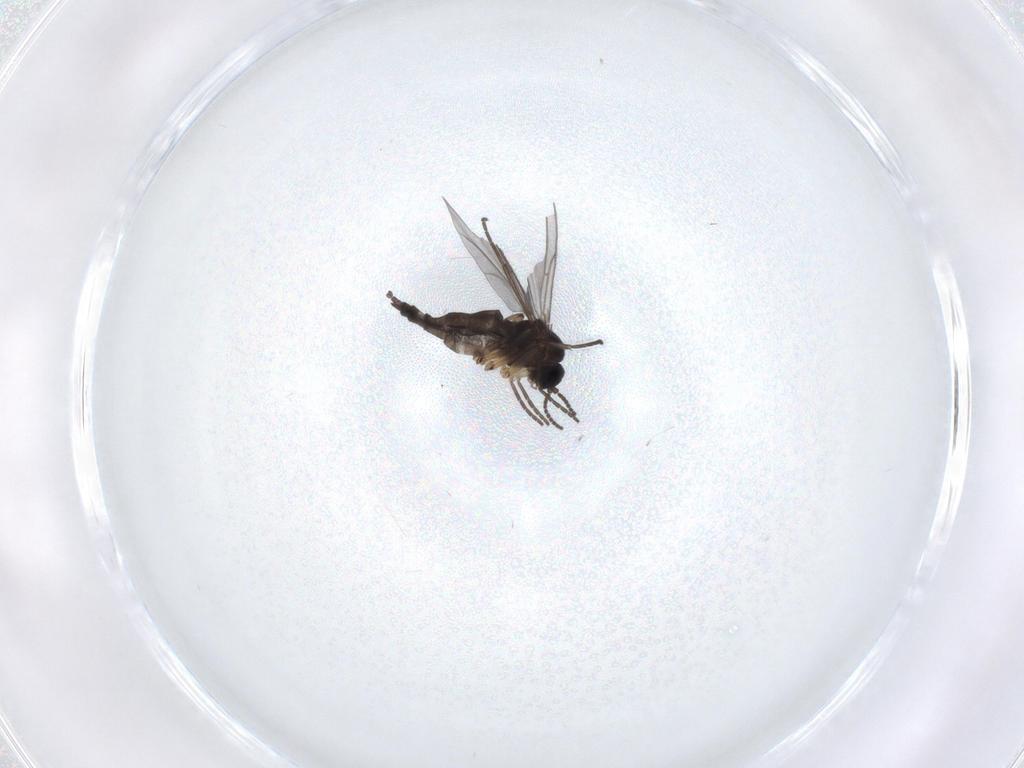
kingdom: Animalia
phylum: Arthropoda
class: Insecta
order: Diptera
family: Sciaridae
